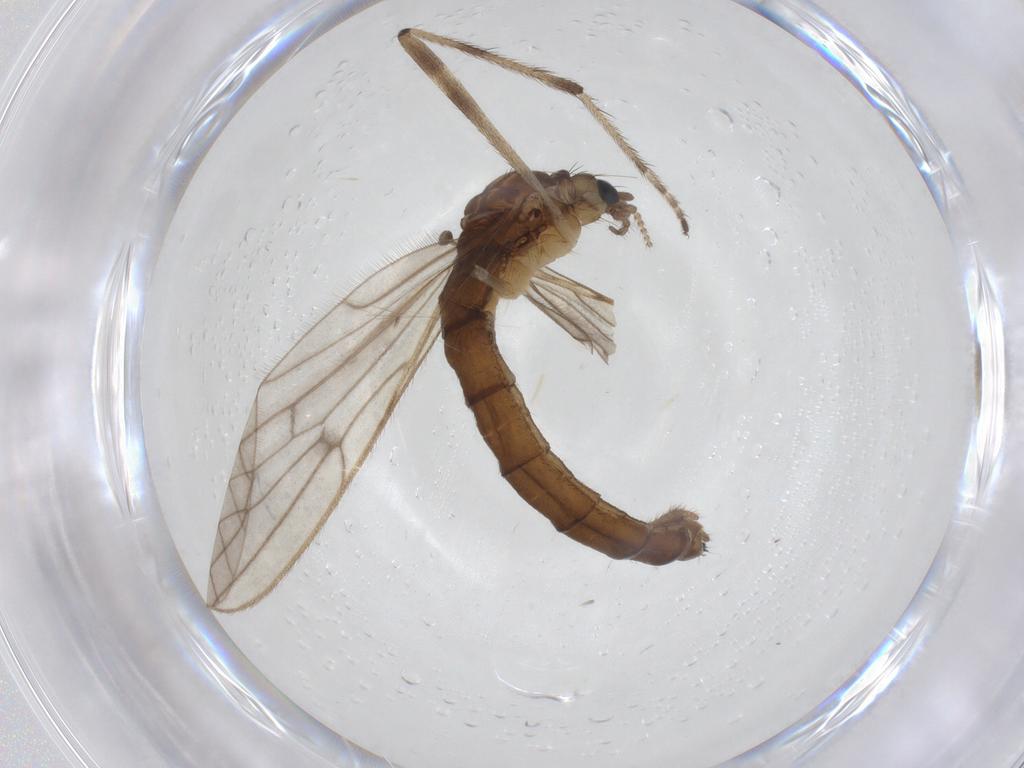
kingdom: Animalia
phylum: Arthropoda
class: Insecta
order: Diptera
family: Limoniidae
